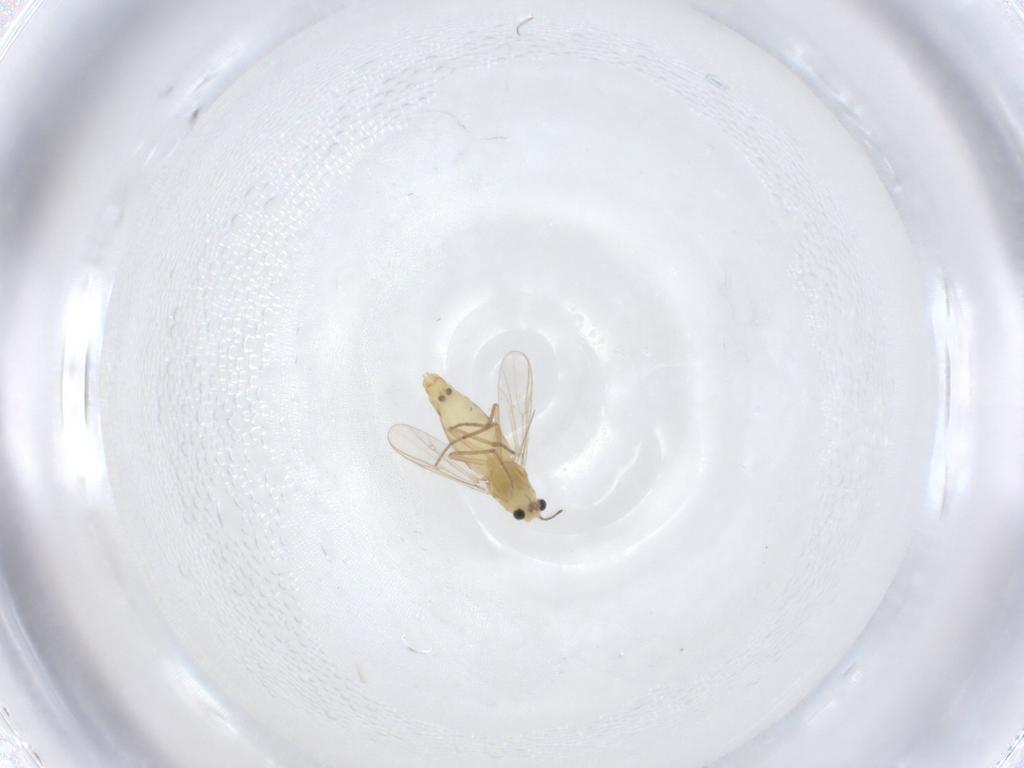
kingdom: Animalia
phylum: Arthropoda
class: Insecta
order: Diptera
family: Chironomidae
